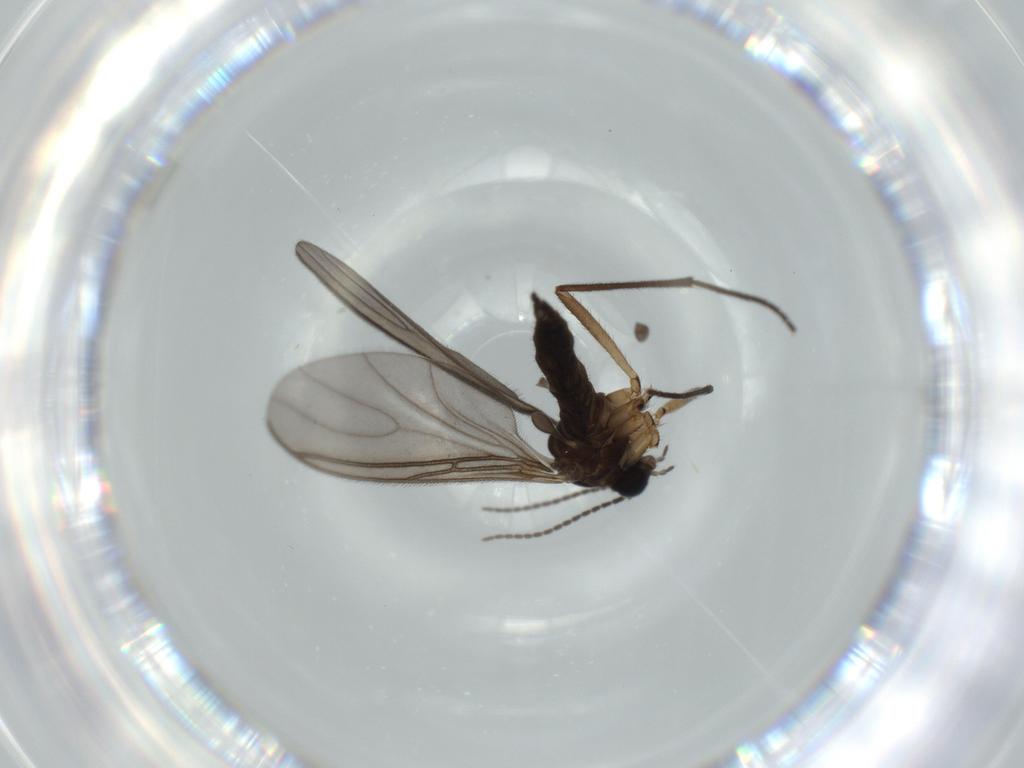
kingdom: Animalia
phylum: Arthropoda
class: Insecta
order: Diptera
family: Sciaridae
